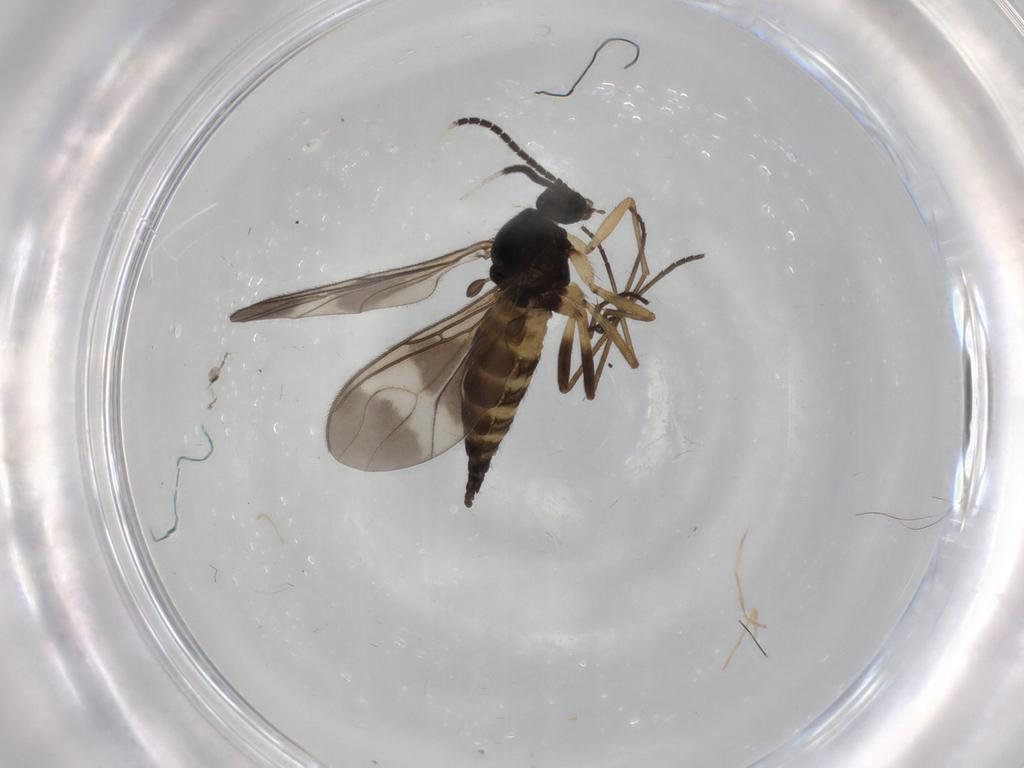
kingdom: Animalia
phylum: Arthropoda
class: Insecta
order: Diptera
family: Sciaridae
